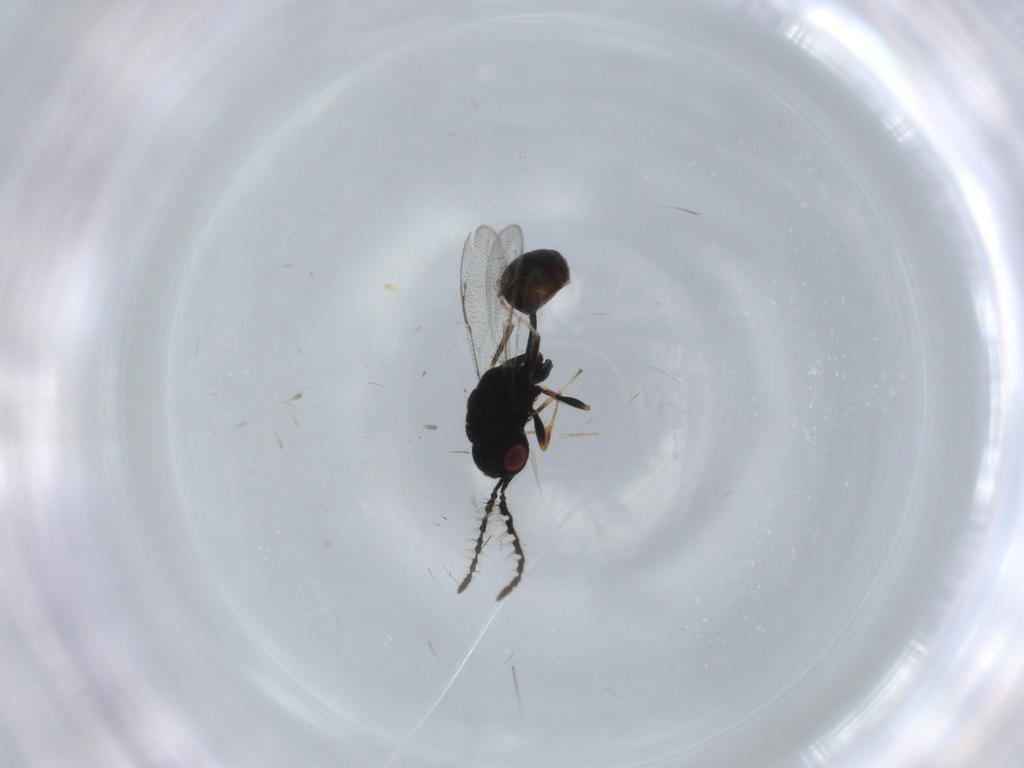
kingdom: Animalia
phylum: Arthropoda
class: Insecta
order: Hymenoptera
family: Eurytomidae
